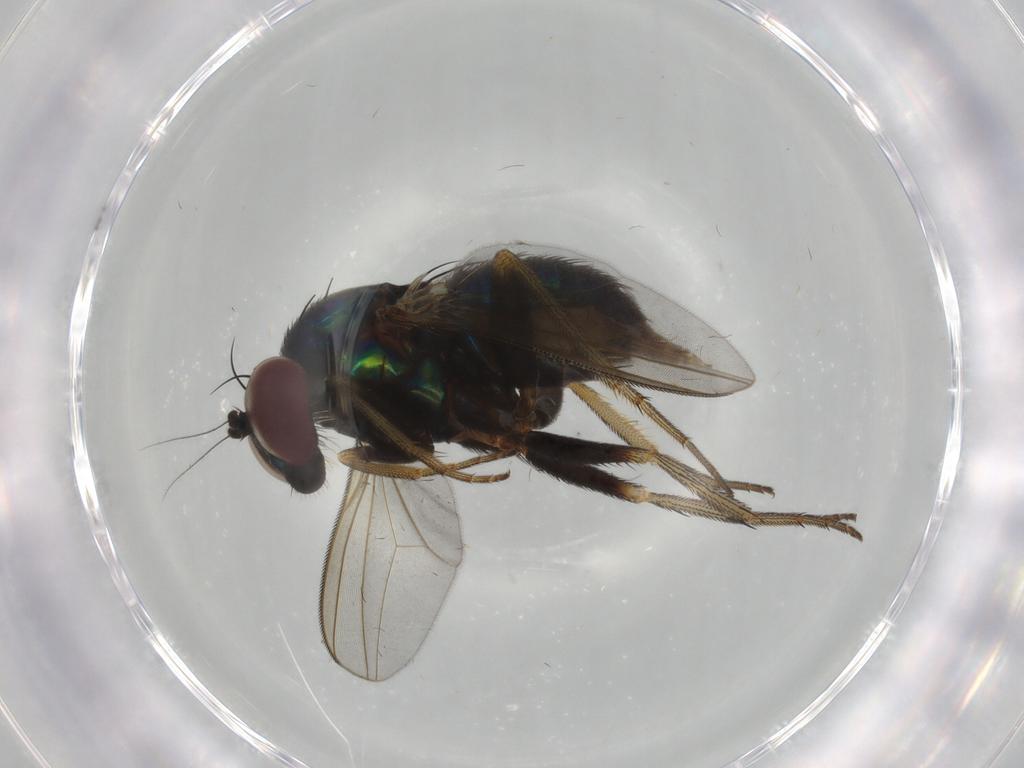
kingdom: Animalia
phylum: Arthropoda
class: Insecta
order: Diptera
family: Dolichopodidae
